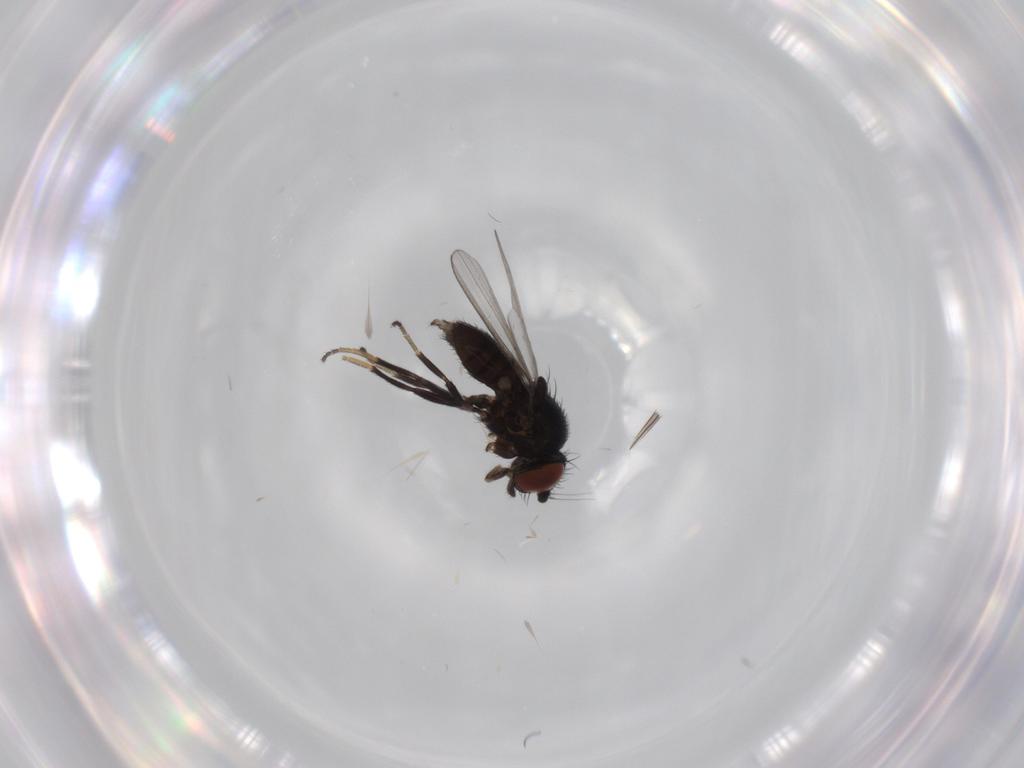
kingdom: Animalia
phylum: Arthropoda
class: Insecta
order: Diptera
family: Milichiidae
